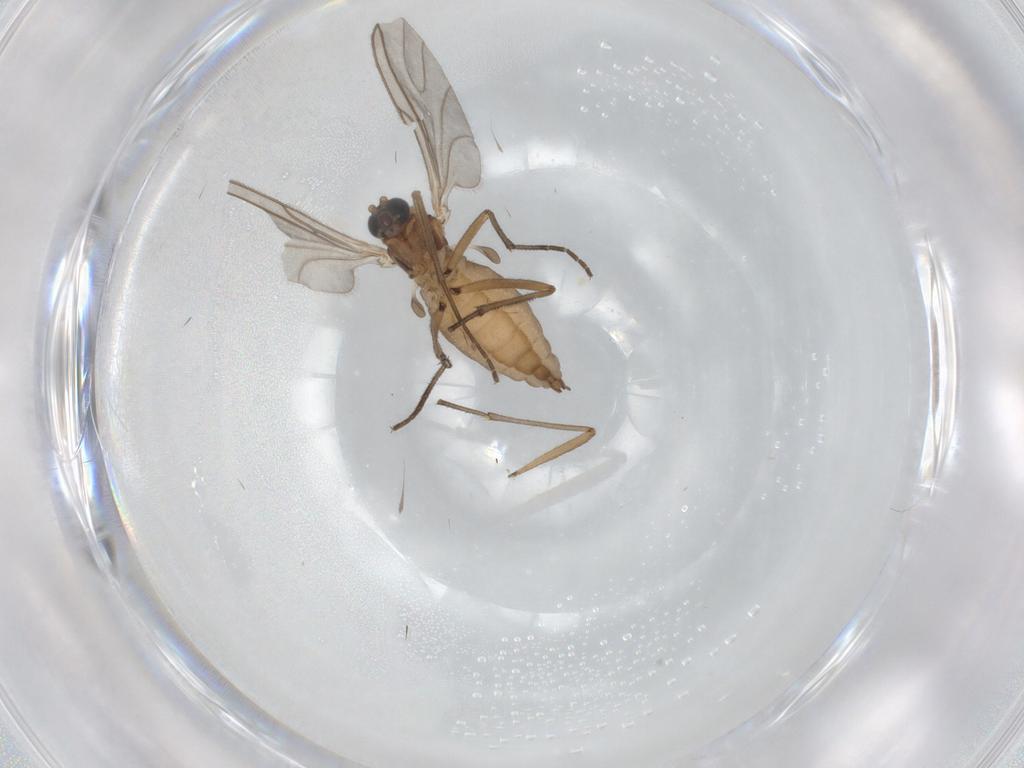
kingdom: Animalia
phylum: Arthropoda
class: Insecta
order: Diptera
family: Sciaridae
